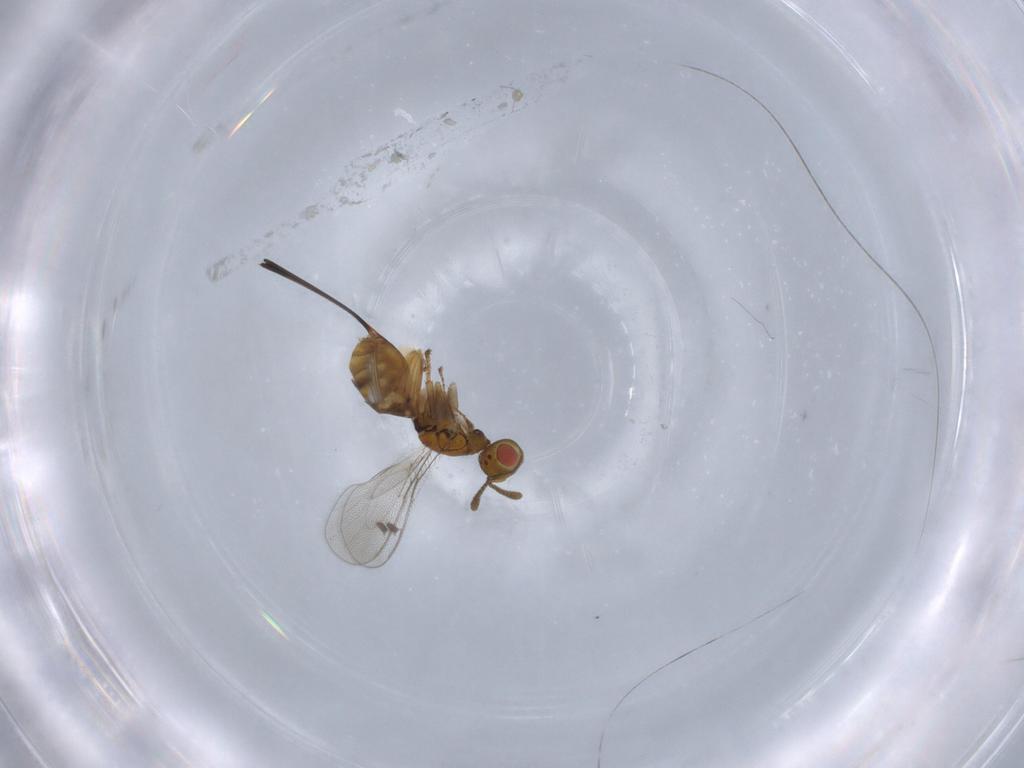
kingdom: Animalia
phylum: Arthropoda
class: Insecta
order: Hymenoptera
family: Megastigmidae
